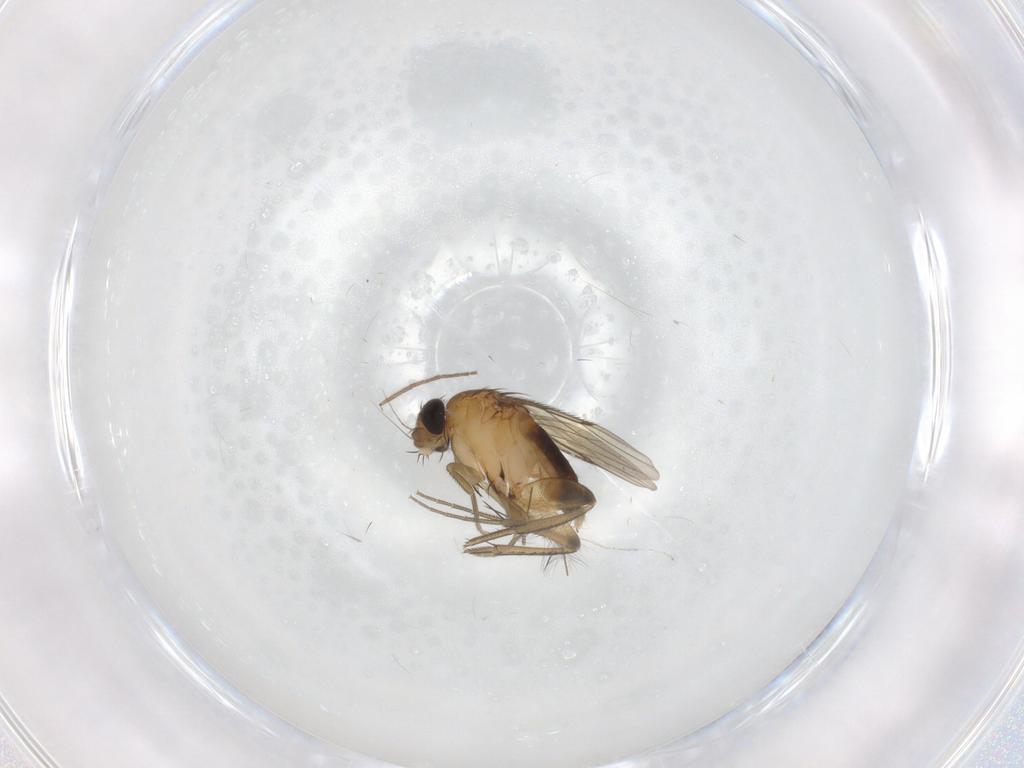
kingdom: Animalia
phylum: Arthropoda
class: Insecta
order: Diptera
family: Phoridae
